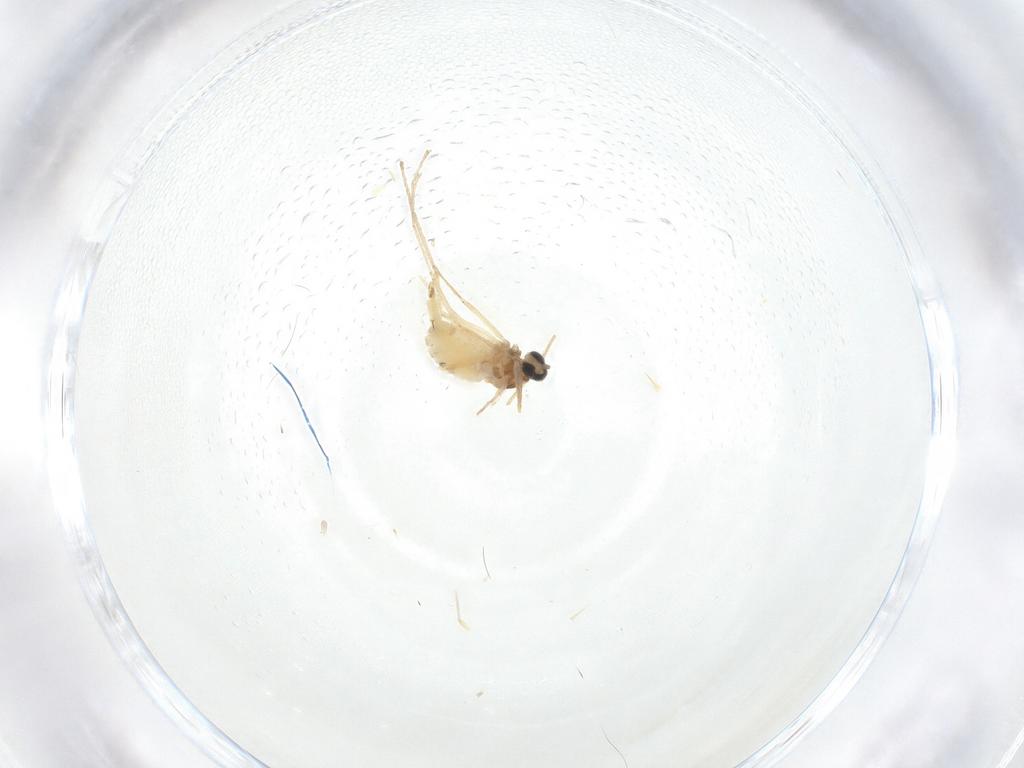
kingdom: Animalia
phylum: Arthropoda
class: Insecta
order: Diptera
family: Cecidomyiidae
